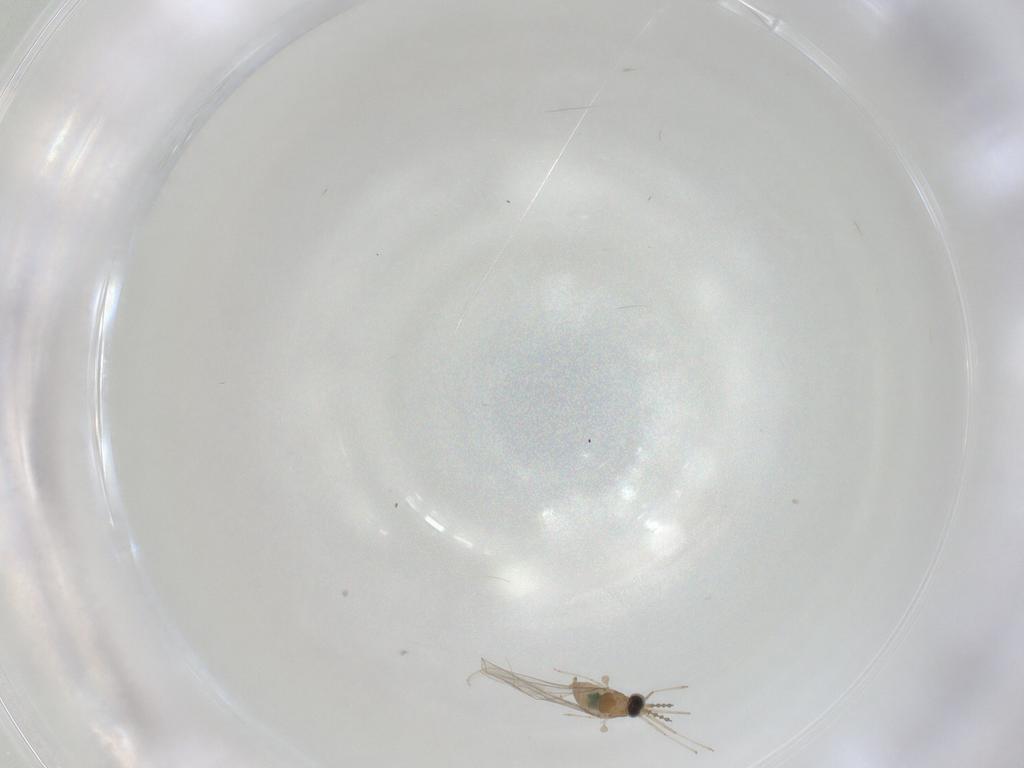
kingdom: Animalia
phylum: Arthropoda
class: Insecta
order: Diptera
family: Cecidomyiidae
